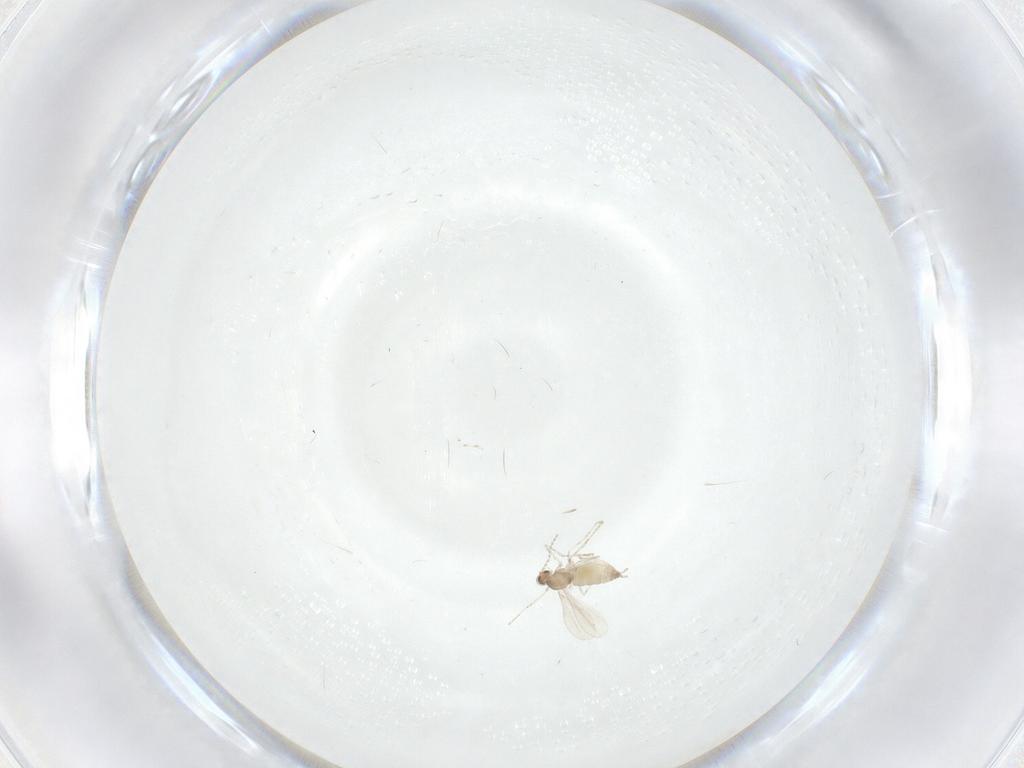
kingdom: Animalia
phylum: Arthropoda
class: Insecta
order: Diptera
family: Cecidomyiidae
